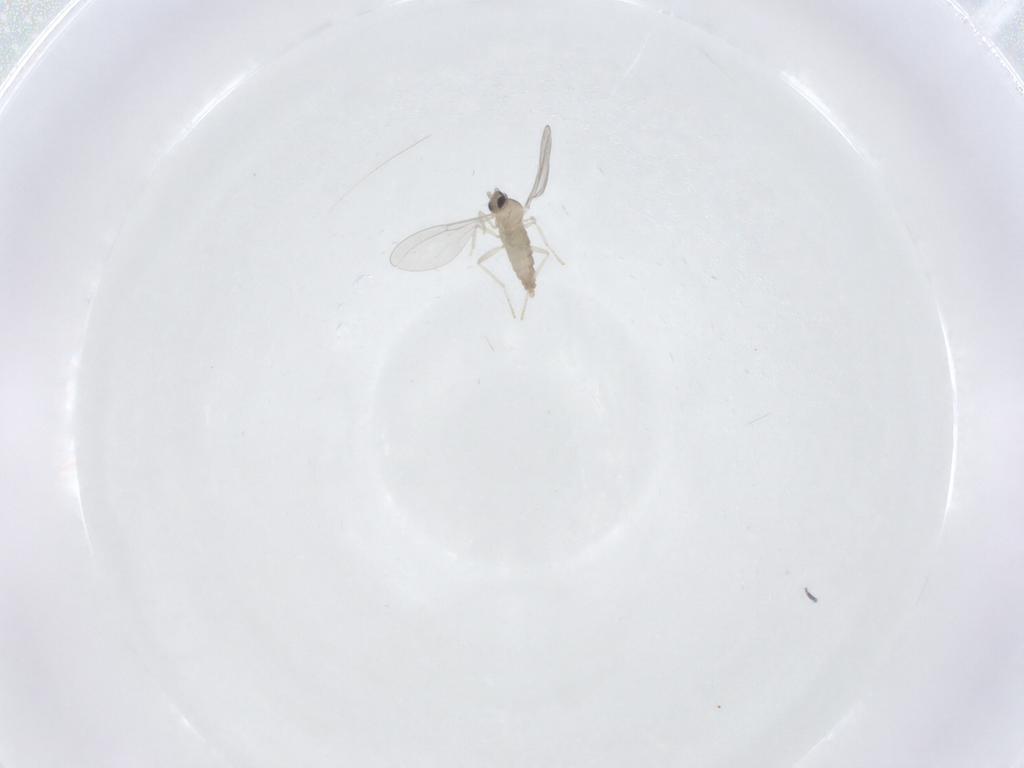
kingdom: Animalia
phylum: Arthropoda
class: Insecta
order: Diptera
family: Milichiidae
